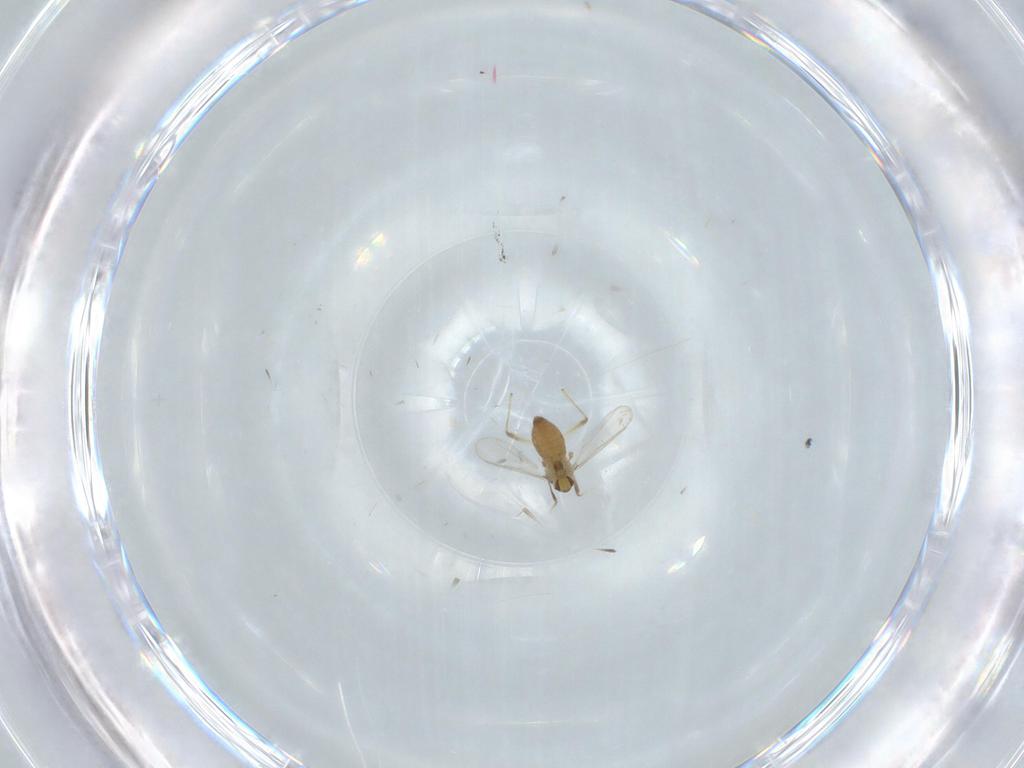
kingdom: Animalia
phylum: Arthropoda
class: Insecta
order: Diptera
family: Chironomidae
